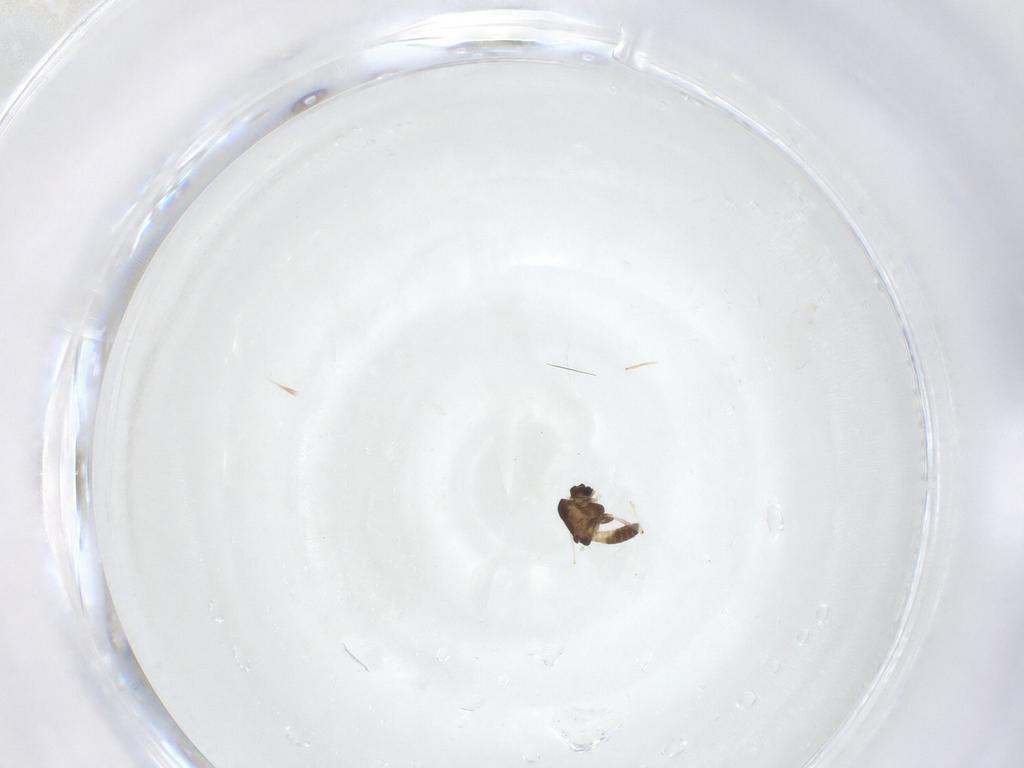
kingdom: Animalia
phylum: Arthropoda
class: Insecta
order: Diptera
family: Chironomidae
